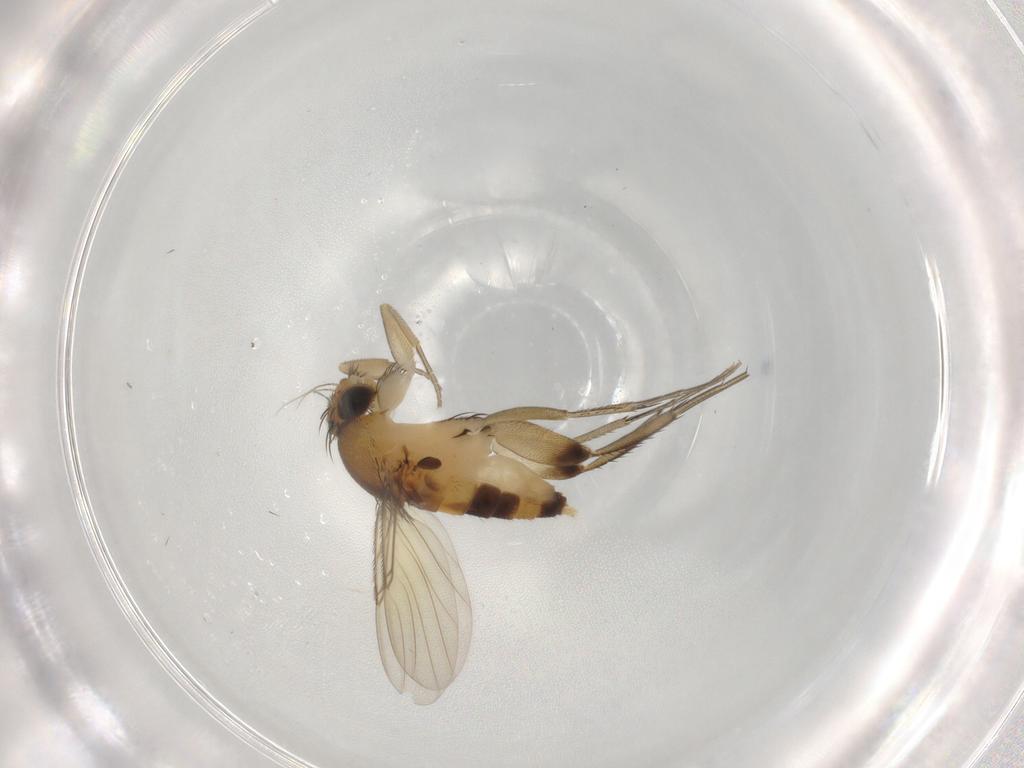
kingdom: Animalia
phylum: Arthropoda
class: Insecta
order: Diptera
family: Phoridae
